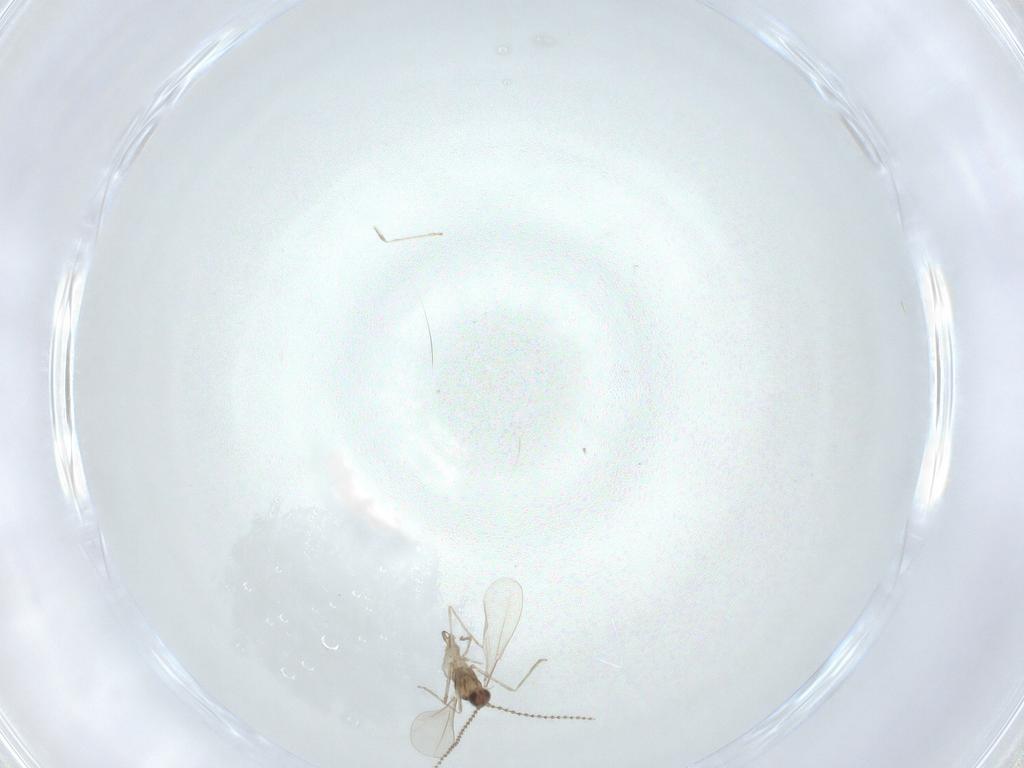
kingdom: Animalia
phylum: Arthropoda
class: Insecta
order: Diptera
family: Cecidomyiidae
